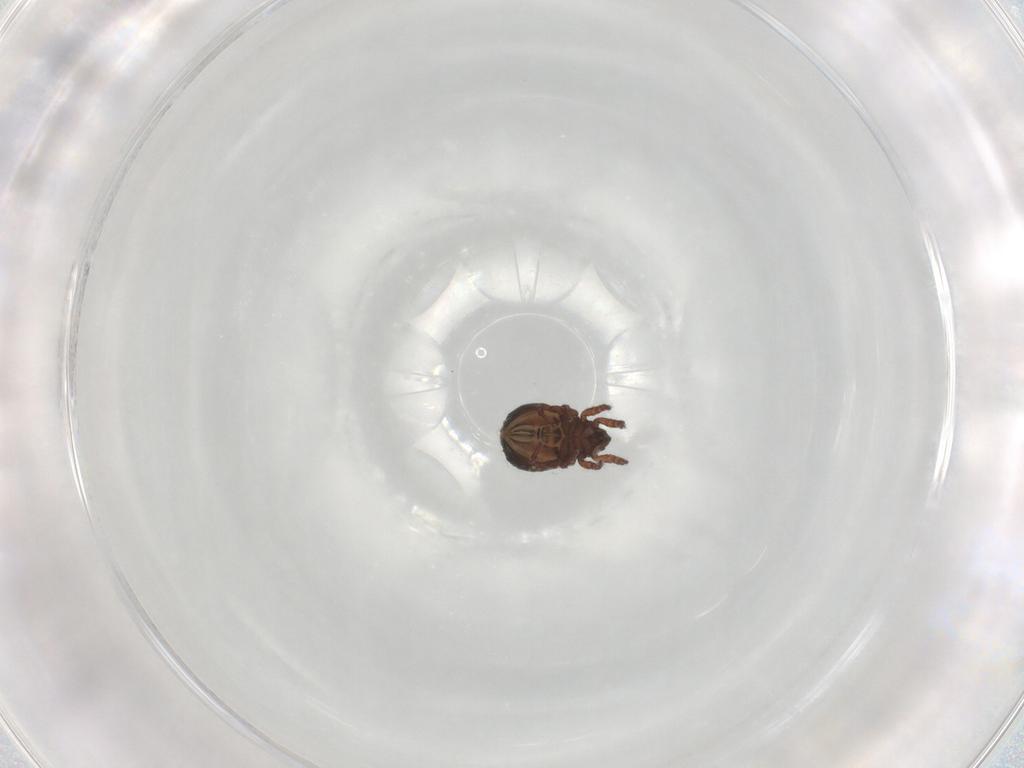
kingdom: Animalia
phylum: Arthropoda
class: Arachnida
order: Sarcoptiformes
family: Crotoniidae
